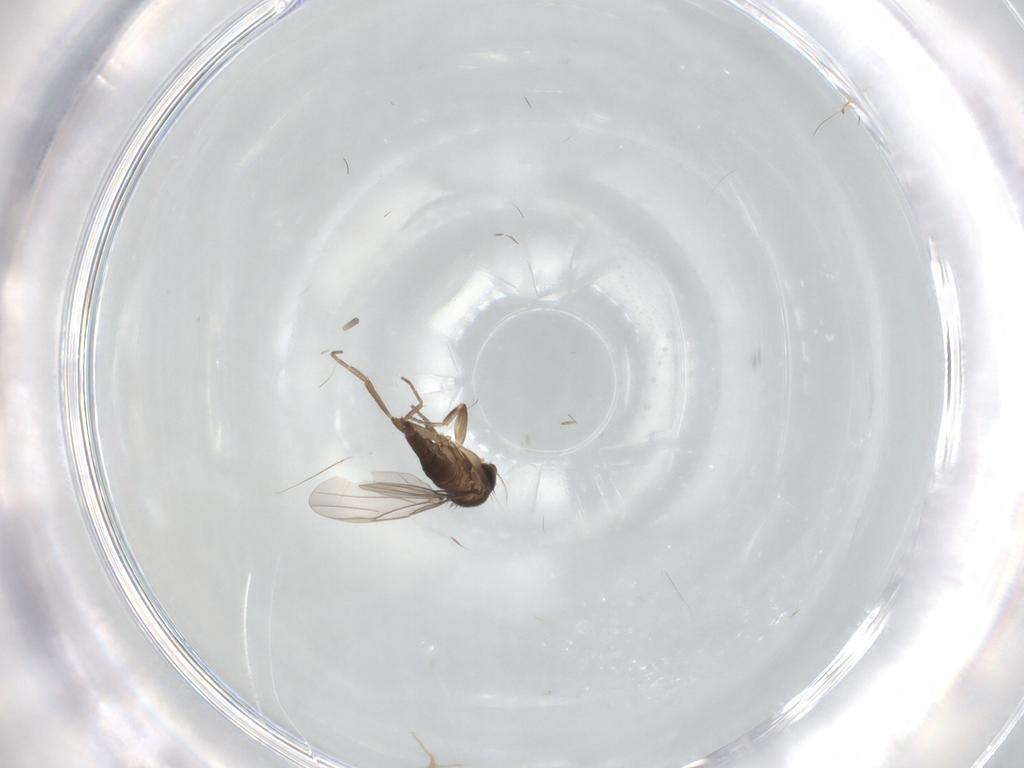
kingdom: Animalia
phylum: Arthropoda
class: Insecta
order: Diptera
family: Phoridae
